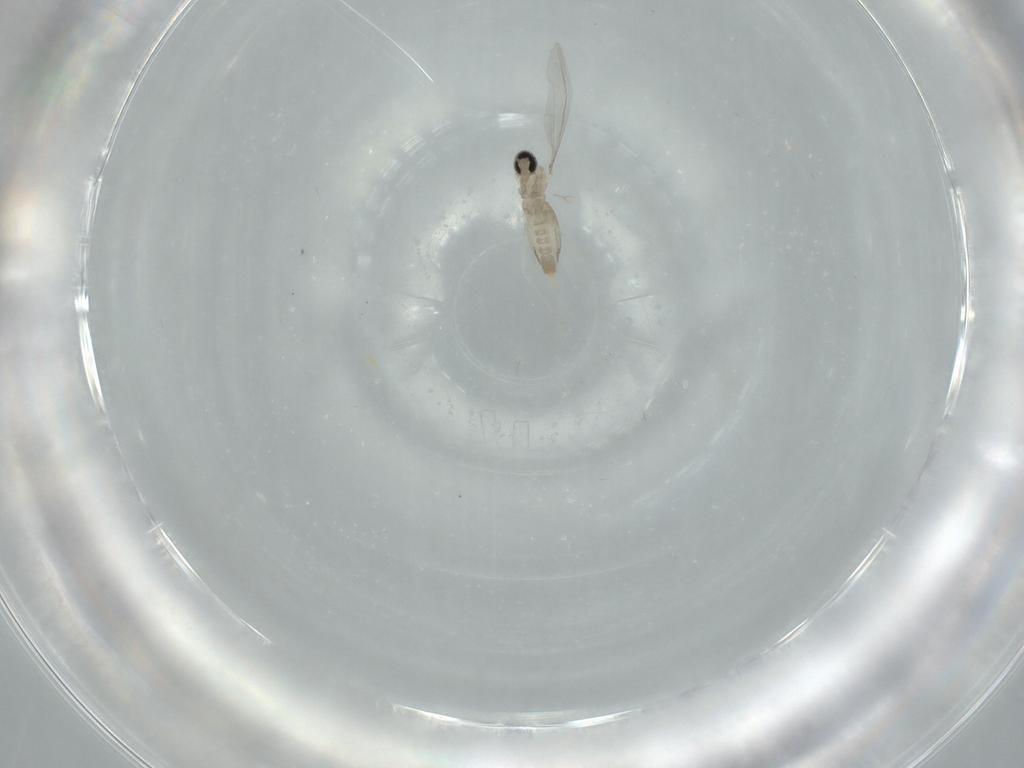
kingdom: Animalia
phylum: Arthropoda
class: Insecta
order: Diptera
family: Cecidomyiidae
